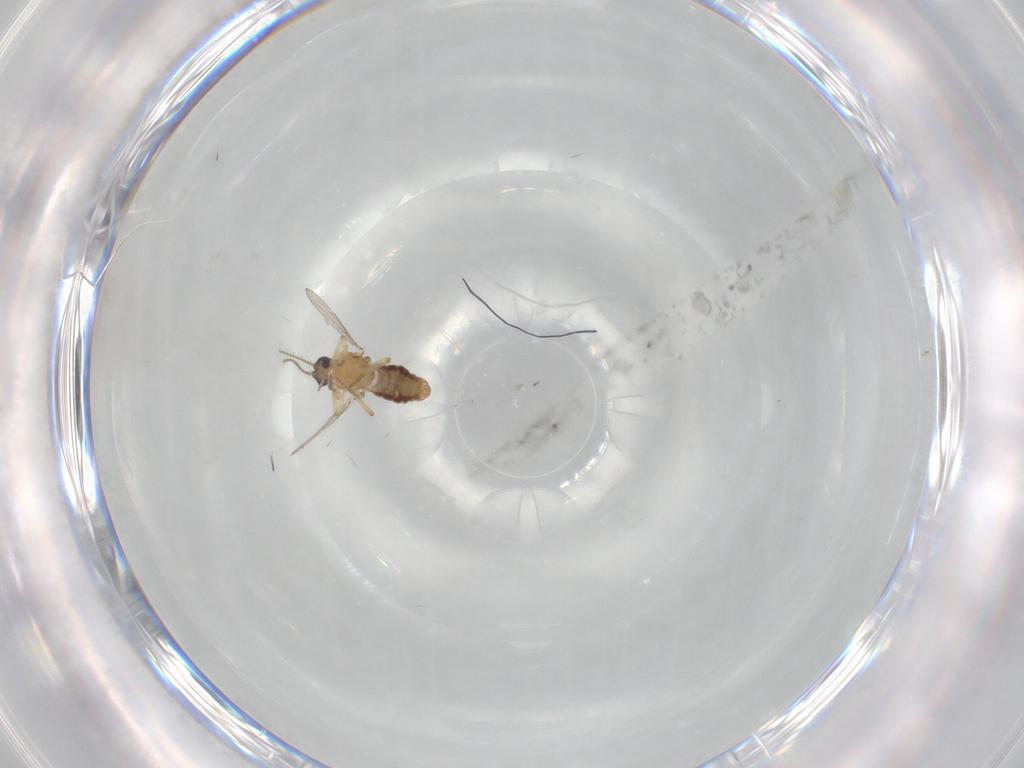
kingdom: Animalia
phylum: Arthropoda
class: Insecta
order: Diptera
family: Ceratopogonidae
